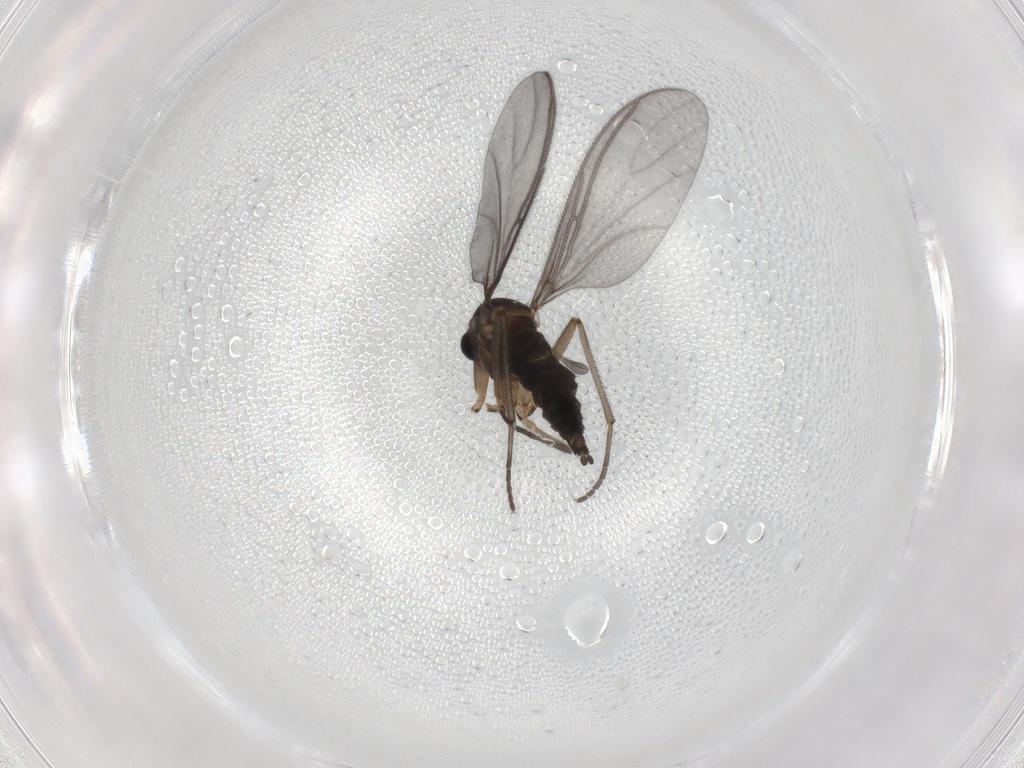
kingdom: Animalia
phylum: Arthropoda
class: Insecta
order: Diptera
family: Sciaridae
